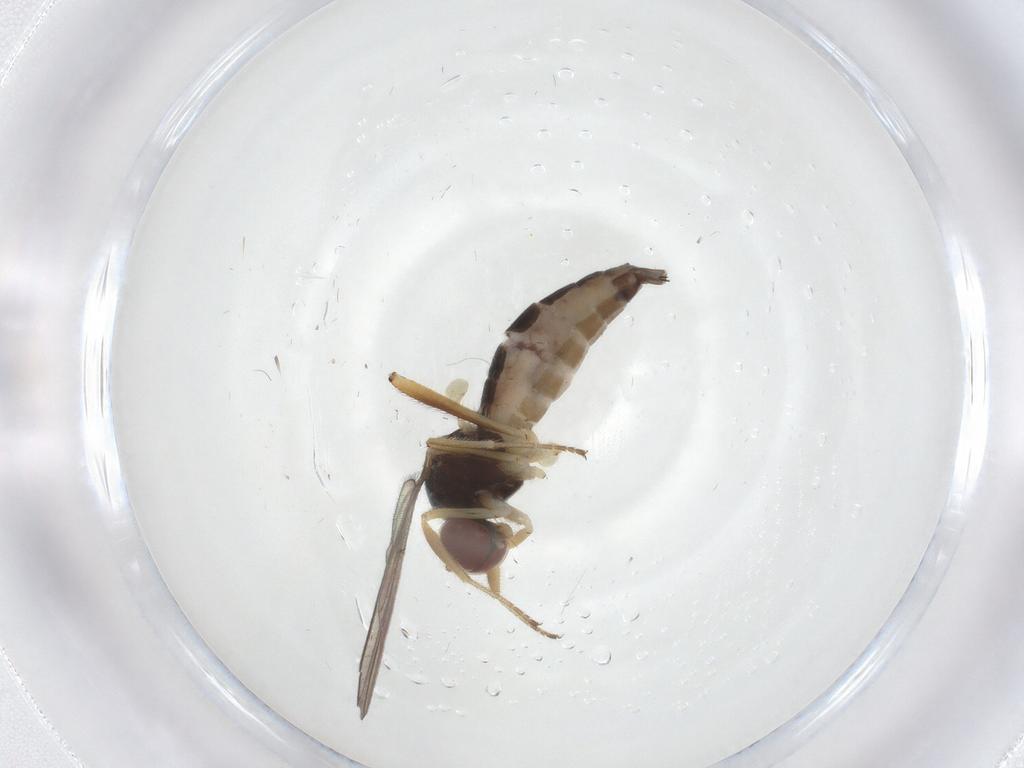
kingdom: Animalia
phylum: Arthropoda
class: Insecta
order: Diptera
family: Hybotidae
